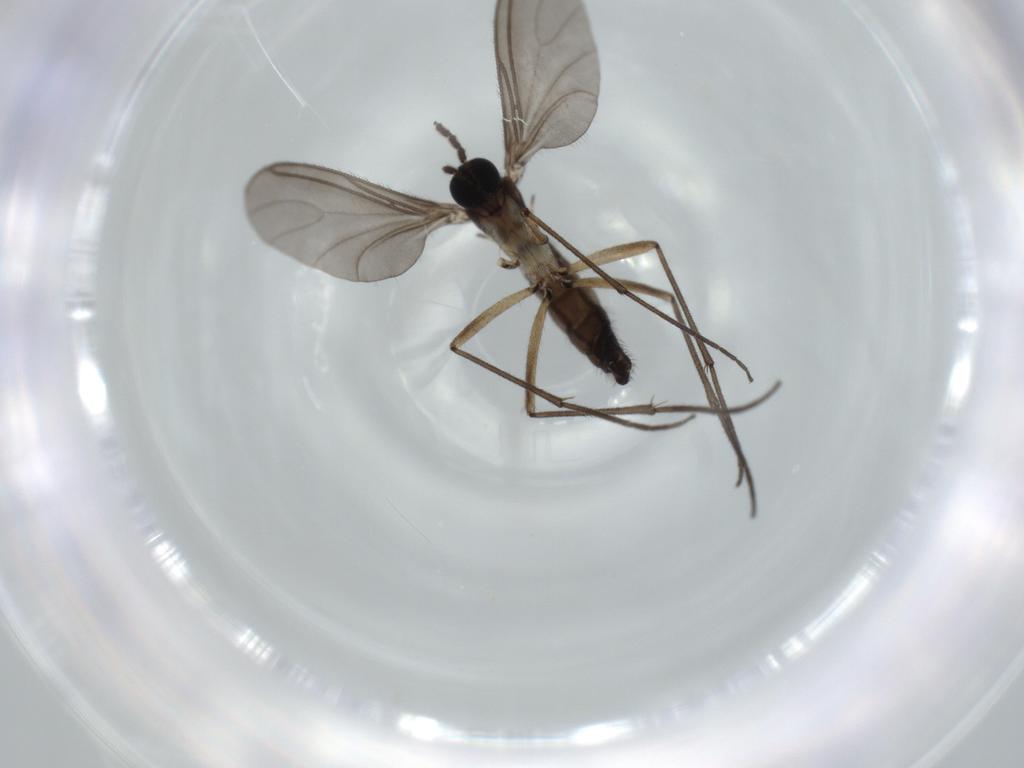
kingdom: Animalia
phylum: Arthropoda
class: Insecta
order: Diptera
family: Sciaridae
